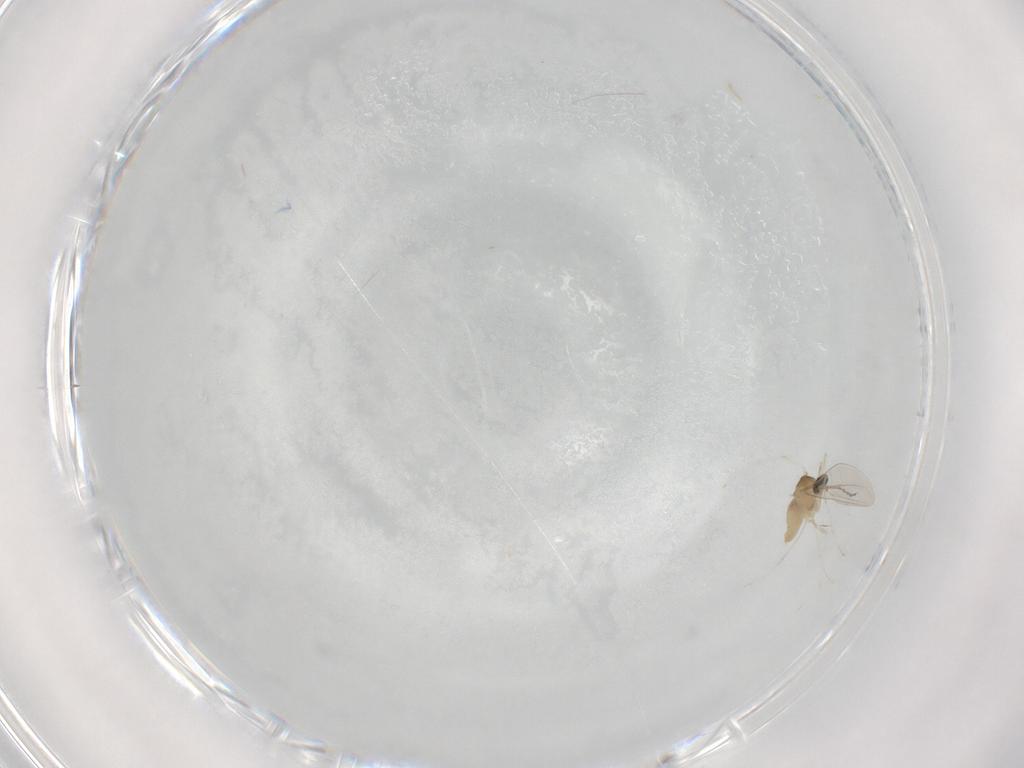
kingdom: Animalia
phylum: Arthropoda
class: Insecta
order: Diptera
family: Cecidomyiidae
